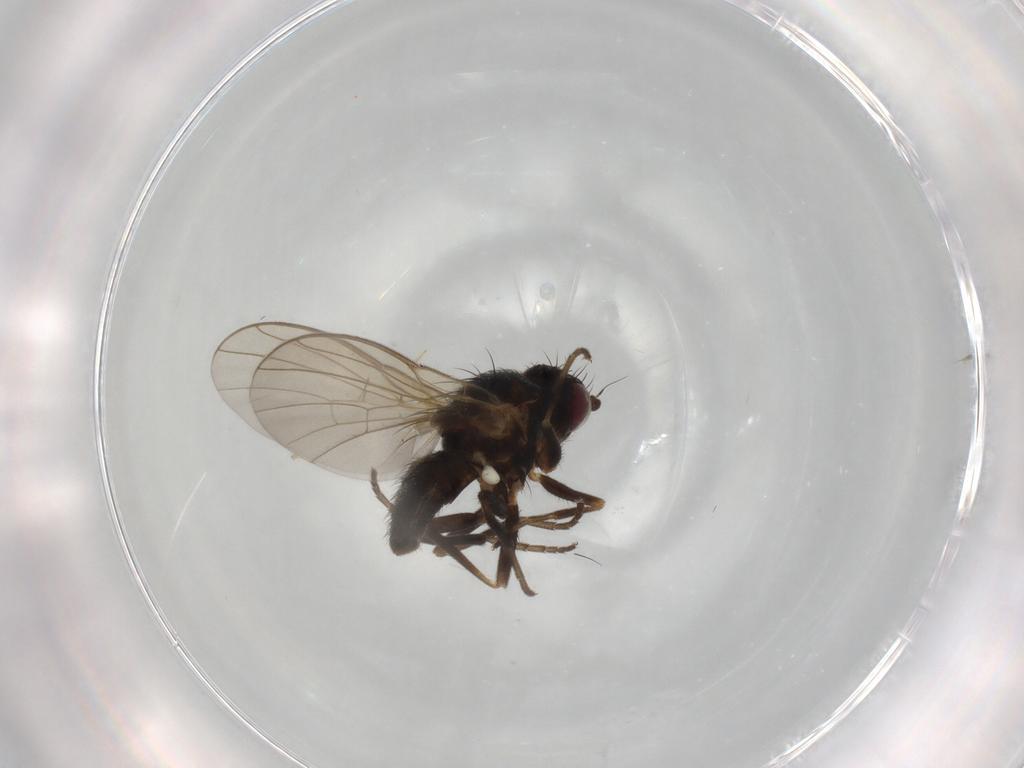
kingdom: Animalia
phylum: Arthropoda
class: Insecta
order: Diptera
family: Agromyzidae
